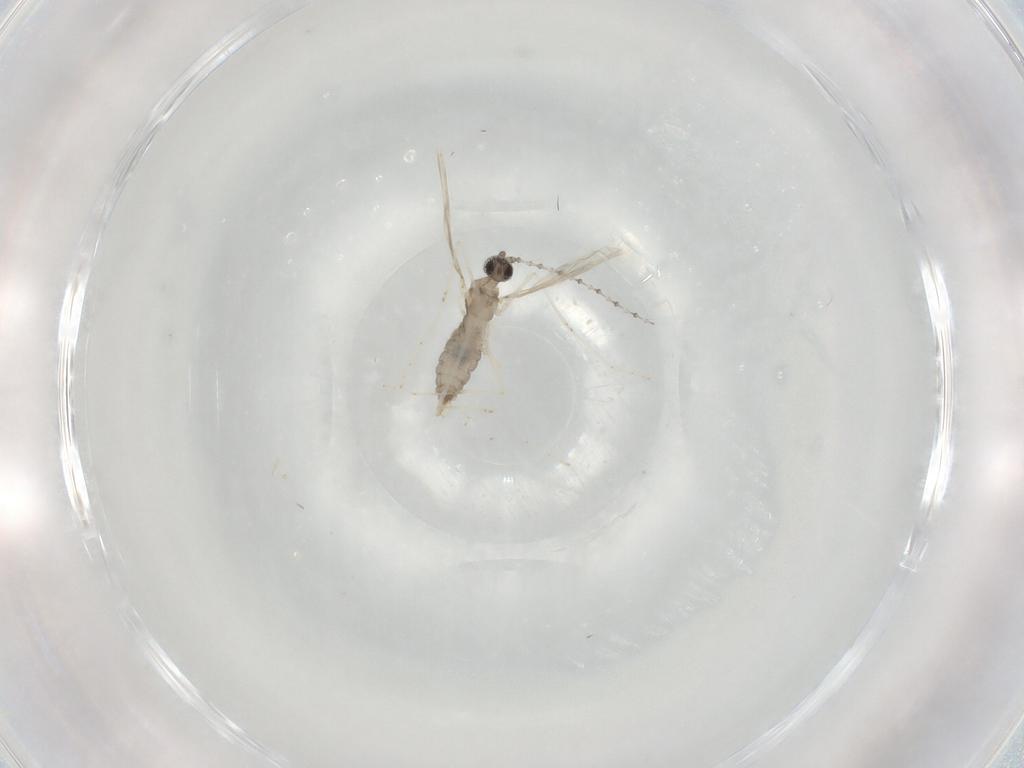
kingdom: Animalia
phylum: Arthropoda
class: Insecta
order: Diptera
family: Cecidomyiidae
